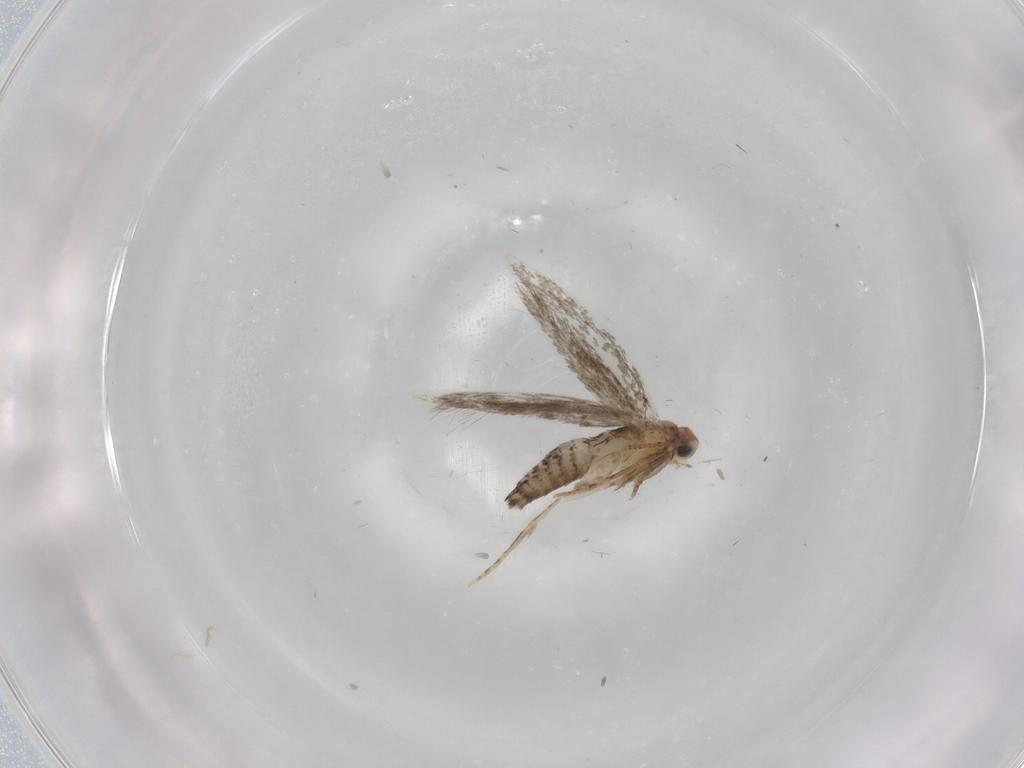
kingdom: Animalia
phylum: Arthropoda
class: Insecta
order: Lepidoptera
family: Meessiidae
